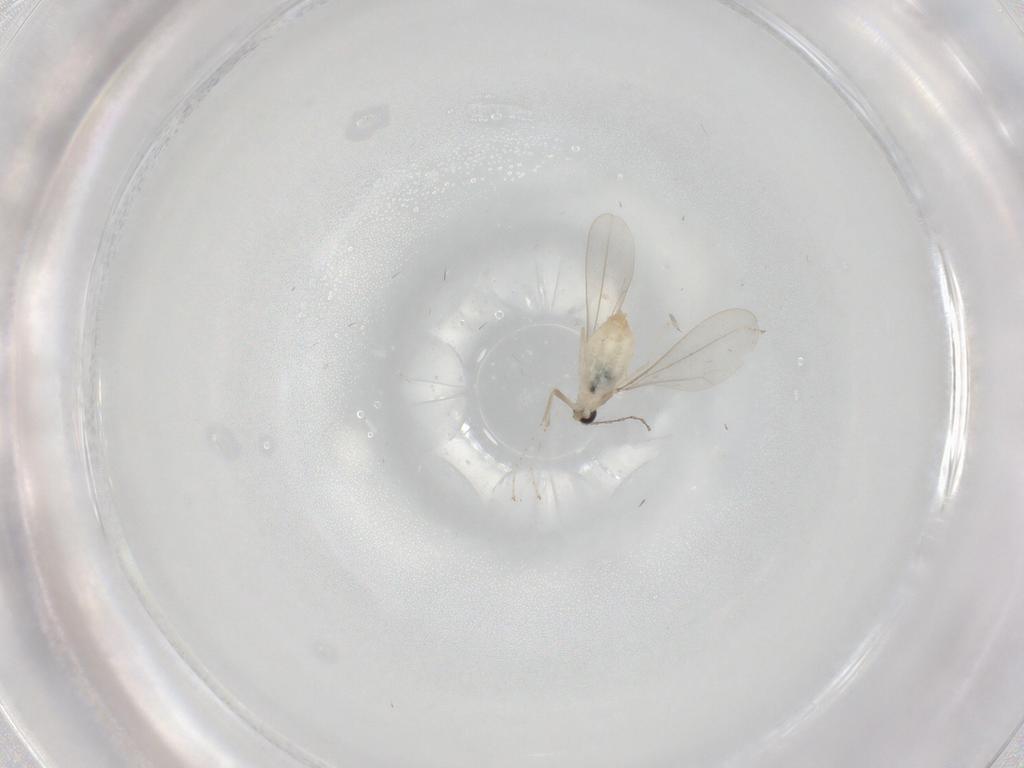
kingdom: Animalia
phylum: Arthropoda
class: Insecta
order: Diptera
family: Cecidomyiidae
